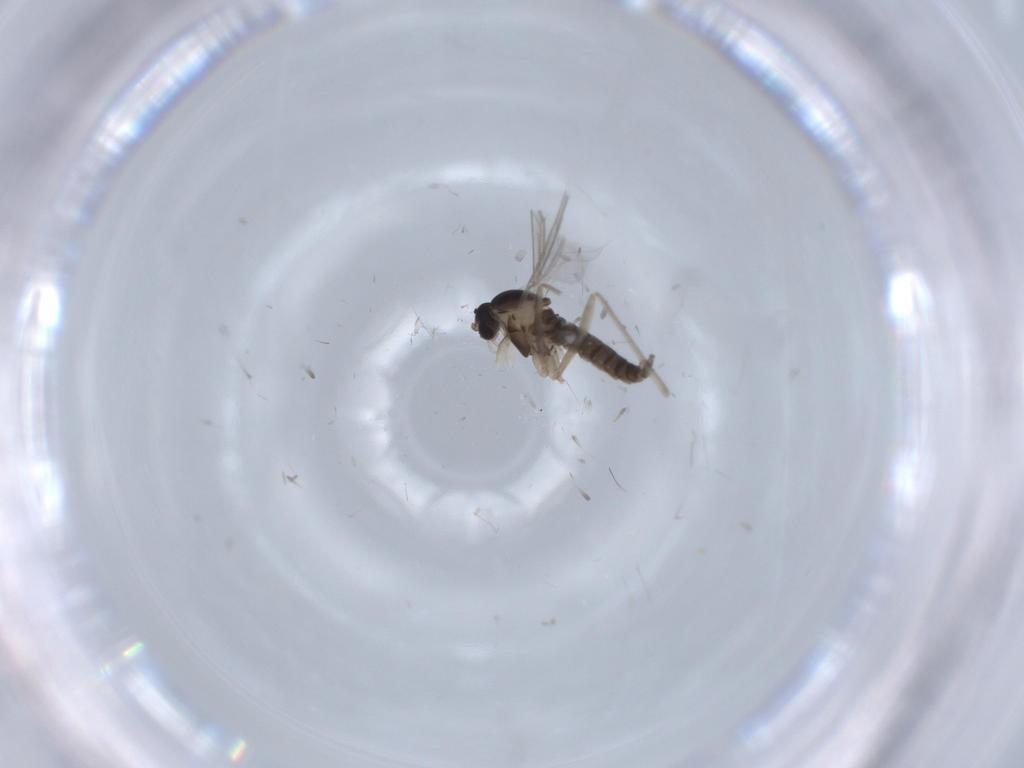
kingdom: Animalia
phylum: Arthropoda
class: Insecta
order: Diptera
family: Cecidomyiidae
